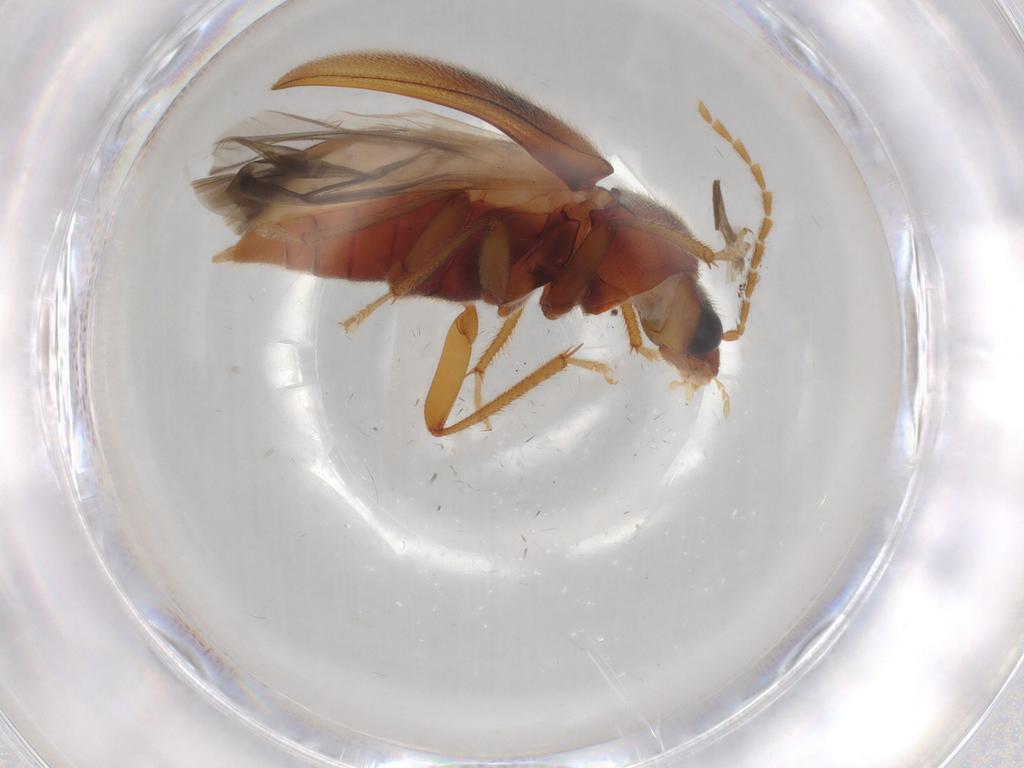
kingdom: Animalia
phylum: Arthropoda
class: Insecta
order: Coleoptera
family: Ptilodactylidae
